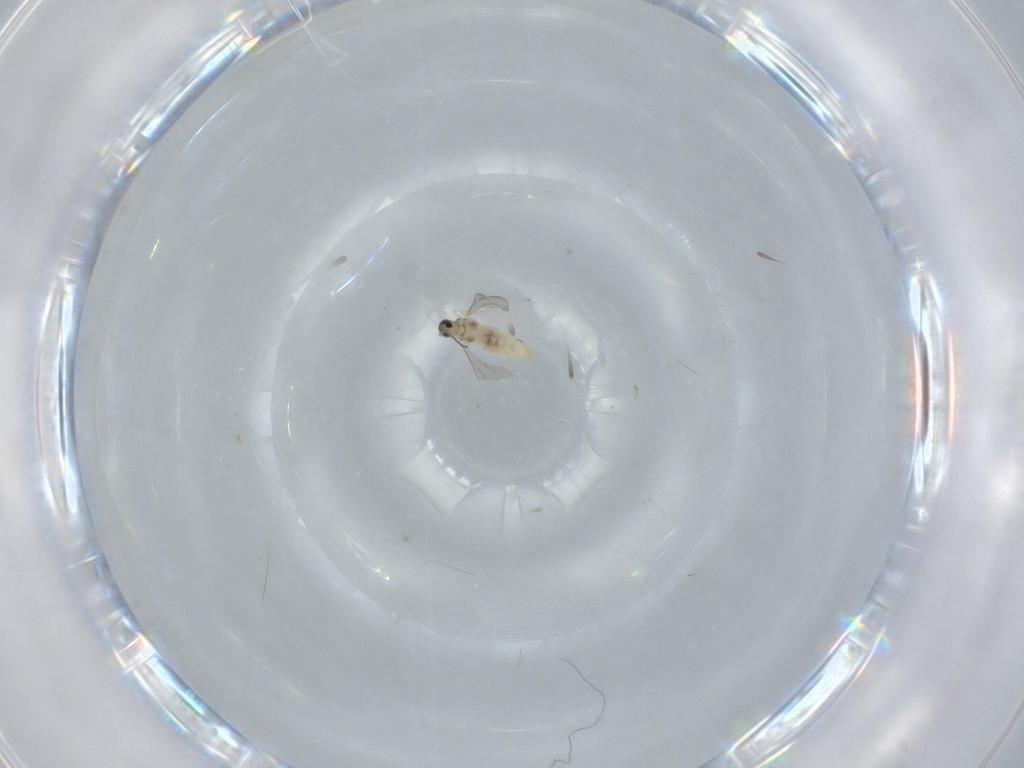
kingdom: Animalia
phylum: Arthropoda
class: Insecta
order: Diptera
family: Cecidomyiidae
